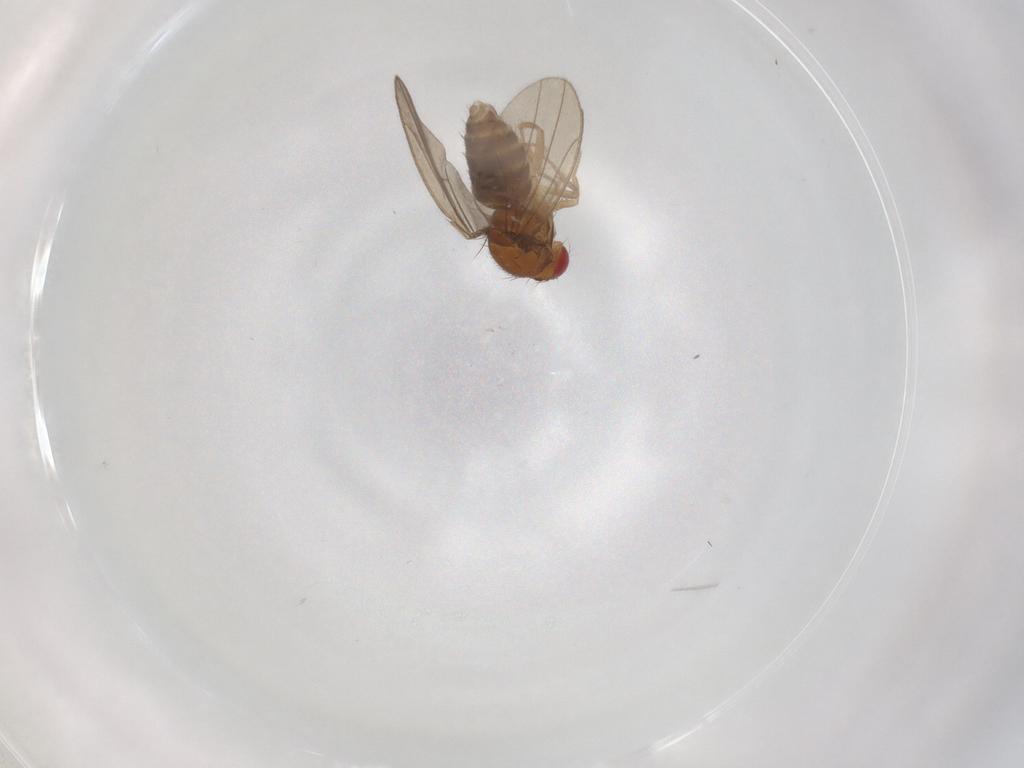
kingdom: Animalia
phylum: Arthropoda
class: Insecta
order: Diptera
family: Drosophilidae
